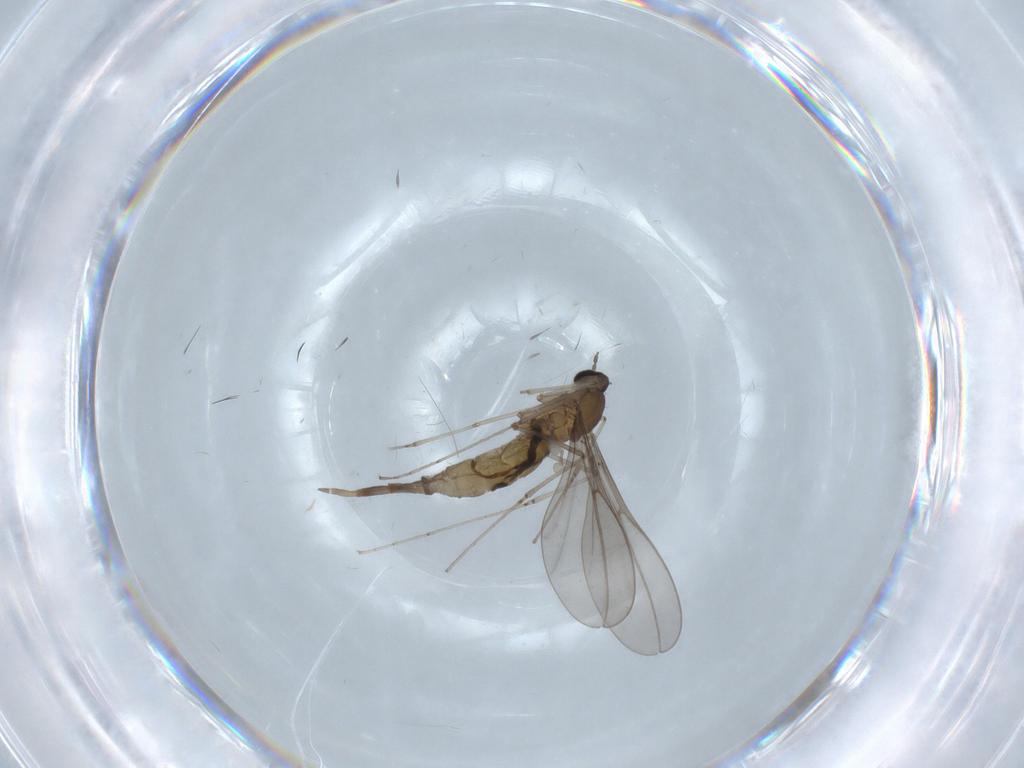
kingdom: Animalia
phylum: Arthropoda
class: Insecta
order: Diptera
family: Cecidomyiidae
